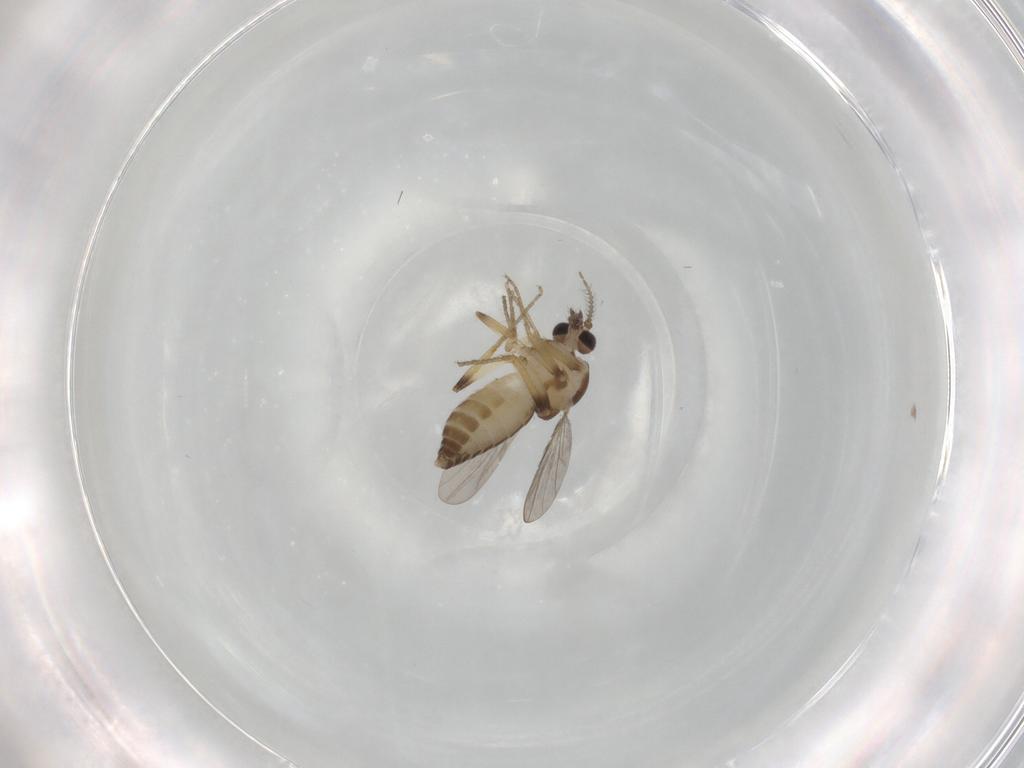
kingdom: Animalia
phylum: Arthropoda
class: Insecta
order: Diptera
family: Ceratopogonidae
